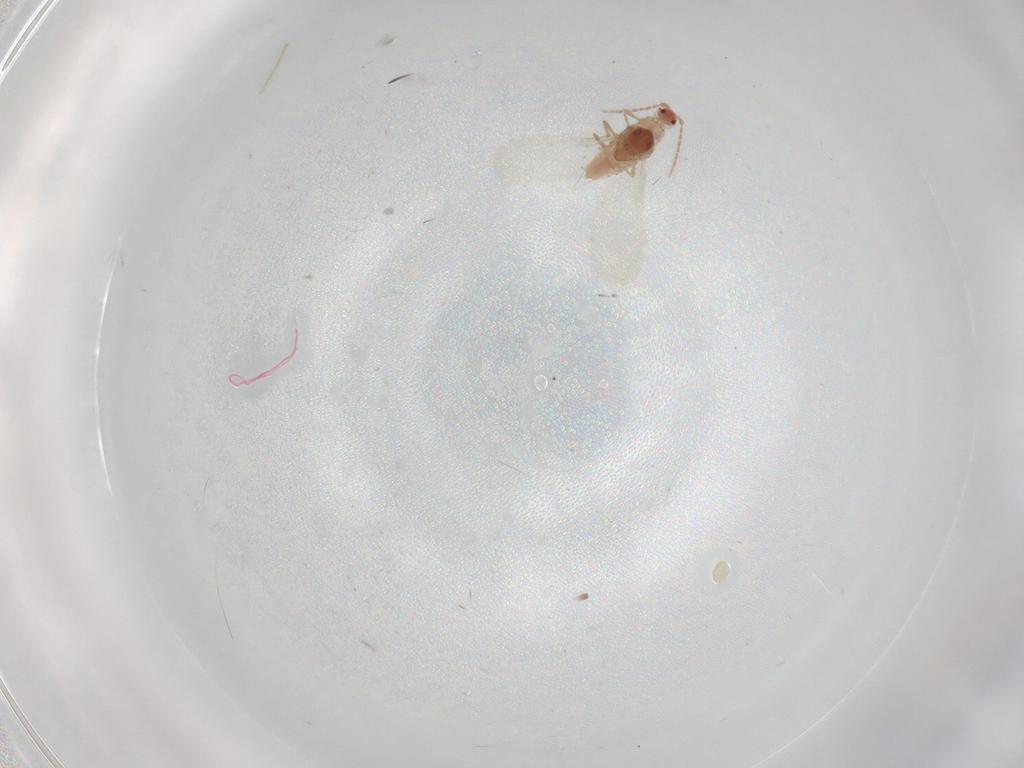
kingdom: Animalia
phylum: Arthropoda
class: Insecta
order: Hemiptera
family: Cicadellidae
